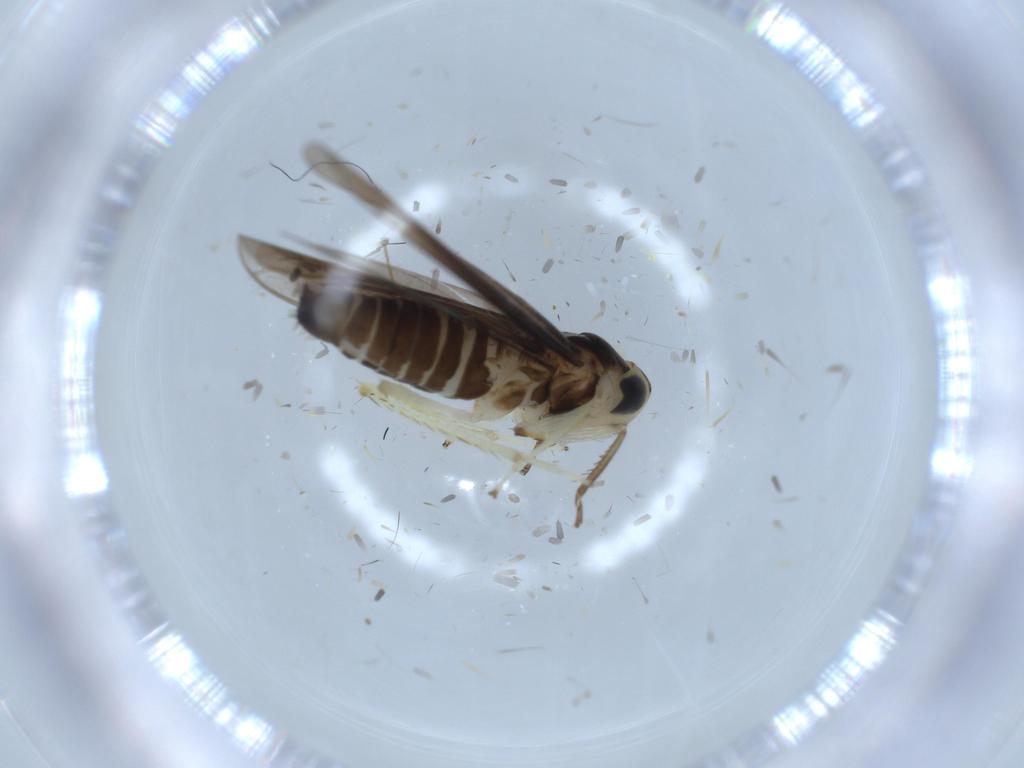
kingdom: Animalia
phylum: Arthropoda
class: Insecta
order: Hemiptera
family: Cicadellidae
